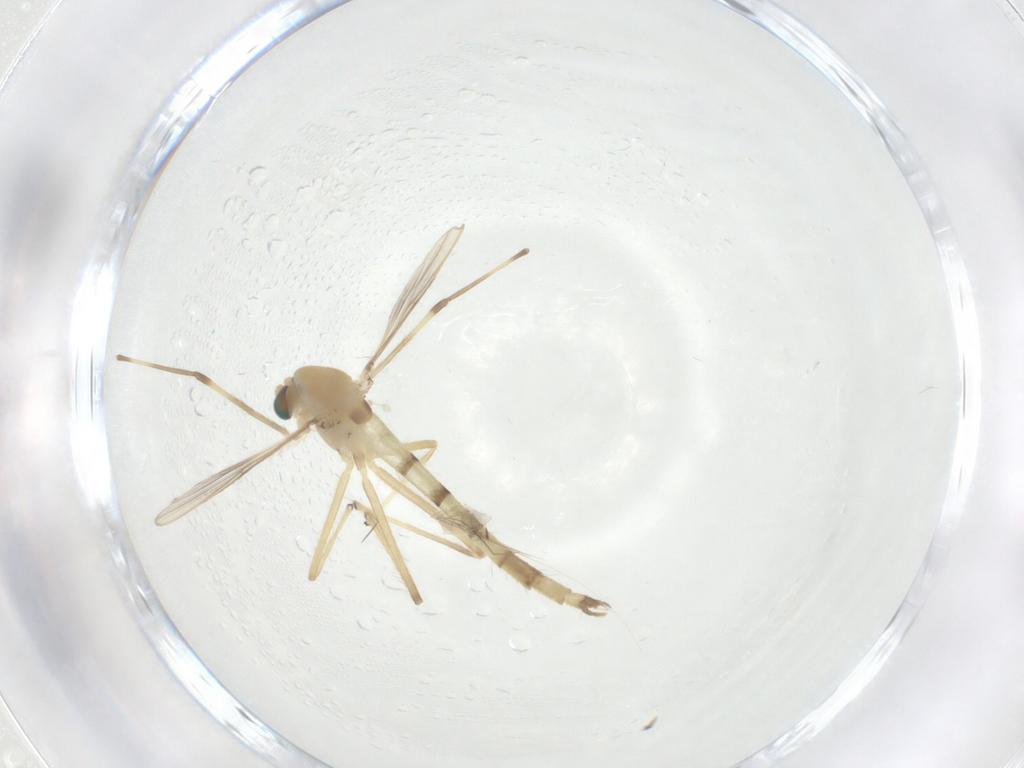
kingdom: Animalia
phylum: Arthropoda
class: Insecta
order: Diptera
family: Chironomidae
